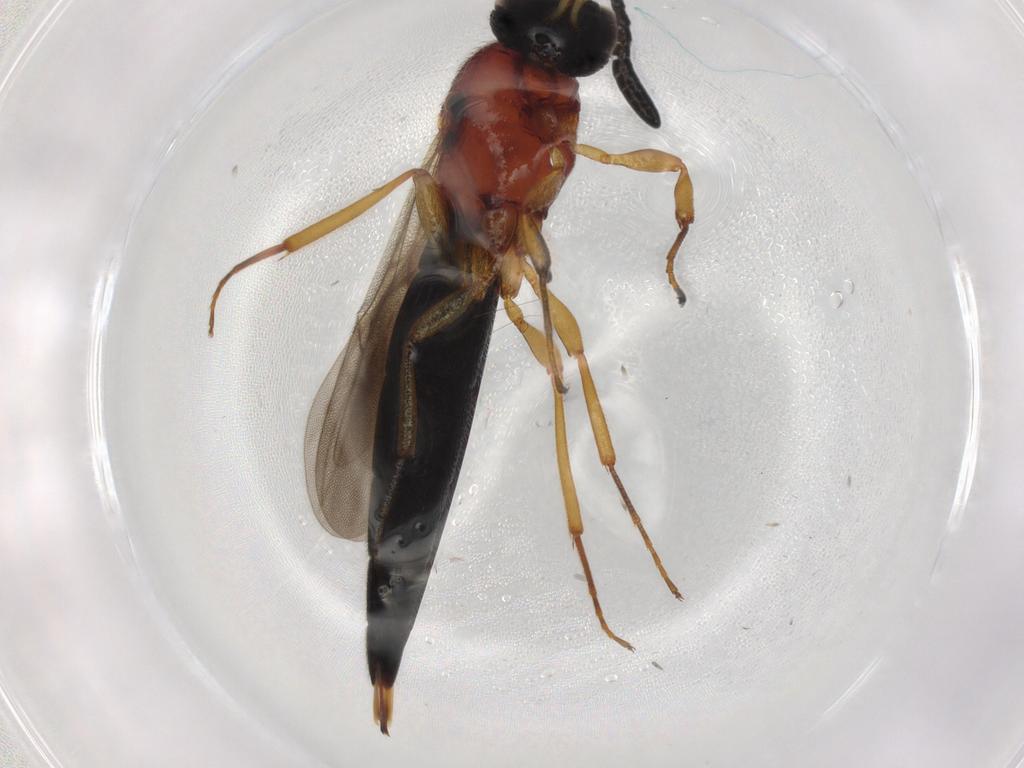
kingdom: Animalia
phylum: Arthropoda
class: Insecta
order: Hymenoptera
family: Scelionidae
